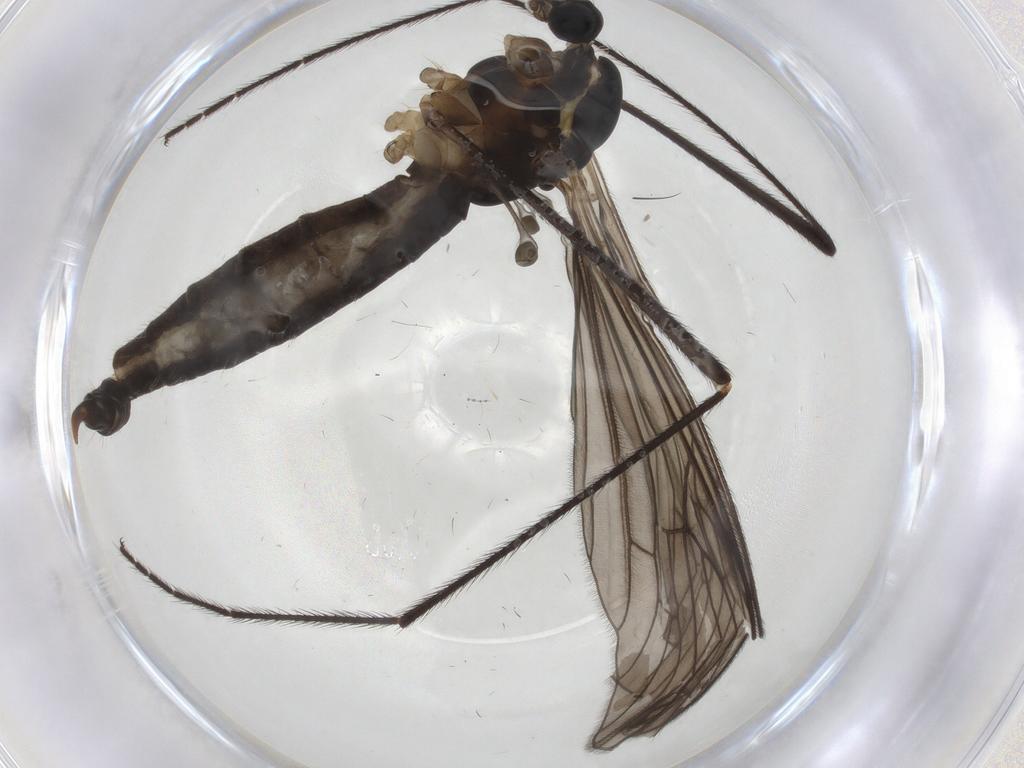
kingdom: Animalia
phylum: Arthropoda
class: Insecta
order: Diptera
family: Limoniidae
